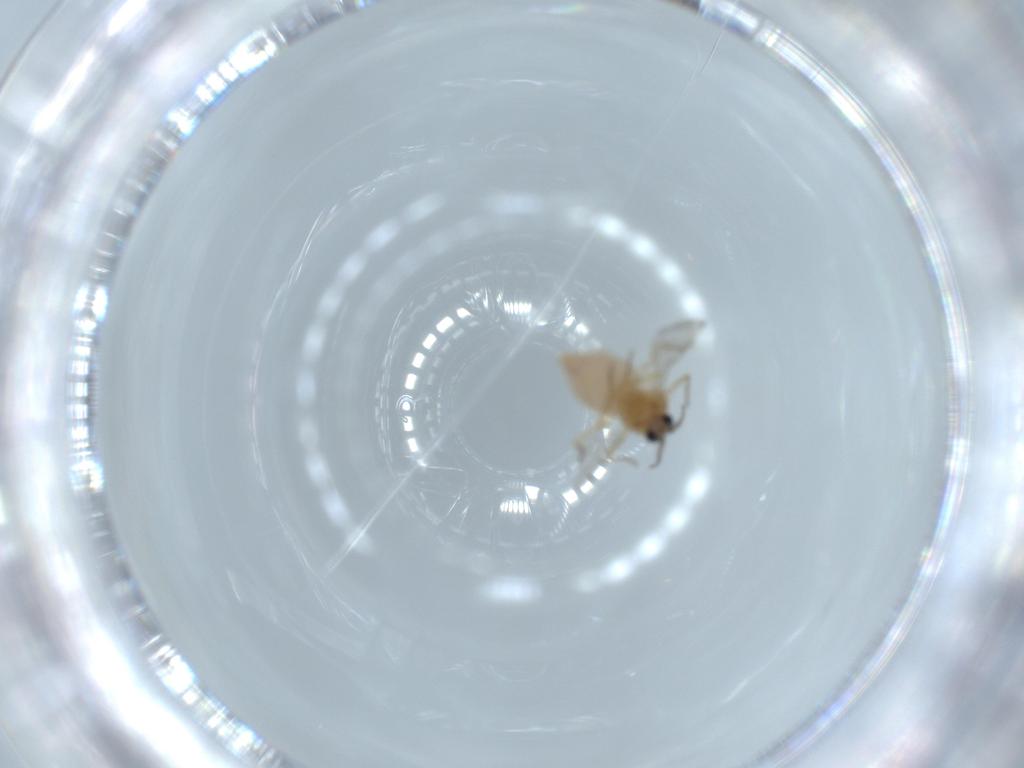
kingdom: Animalia
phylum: Arthropoda
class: Insecta
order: Diptera
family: Ceratopogonidae
